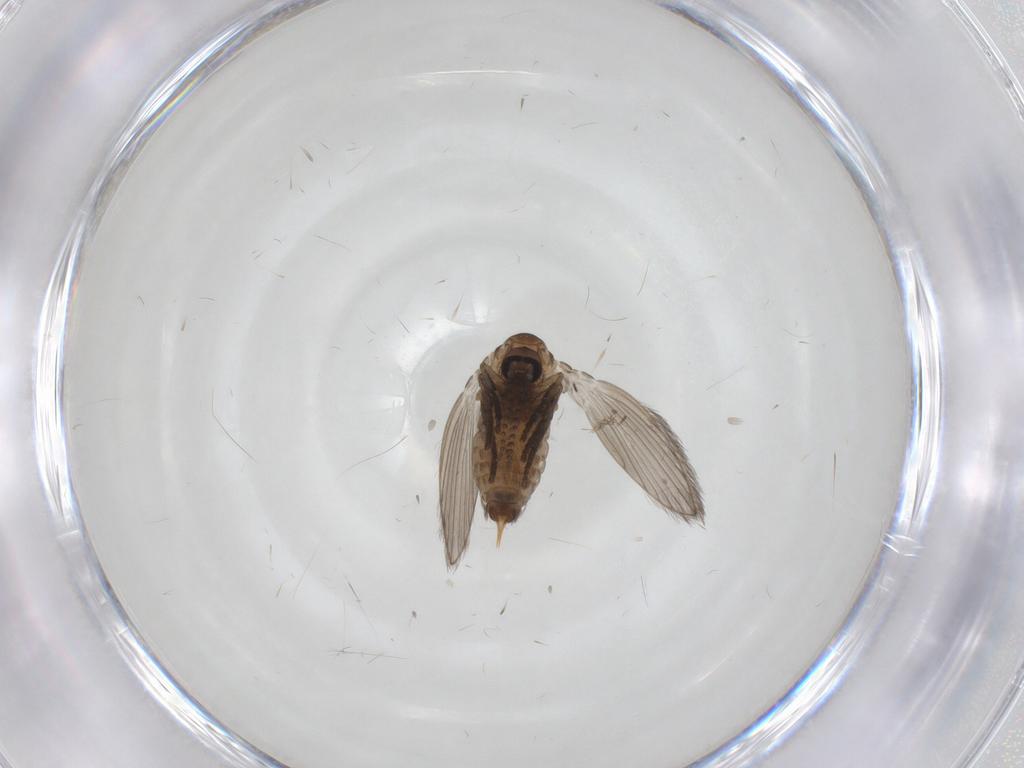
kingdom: Animalia
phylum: Arthropoda
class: Insecta
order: Diptera
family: Psychodidae
